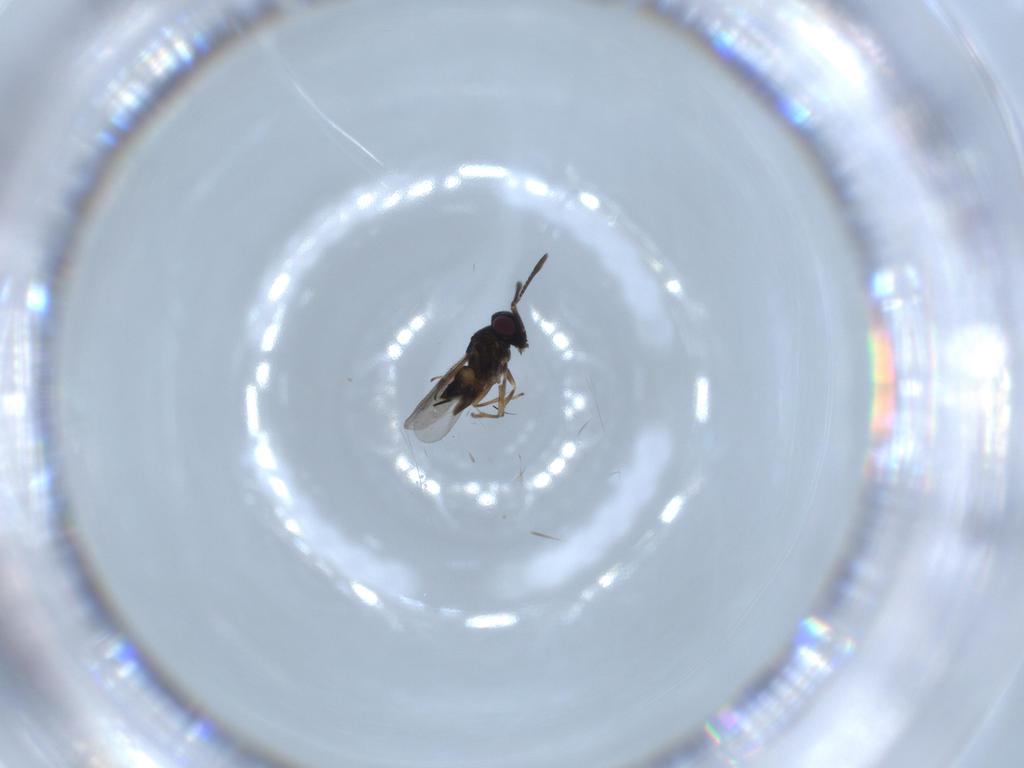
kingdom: Animalia
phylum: Arthropoda
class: Insecta
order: Hymenoptera
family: Encyrtidae
